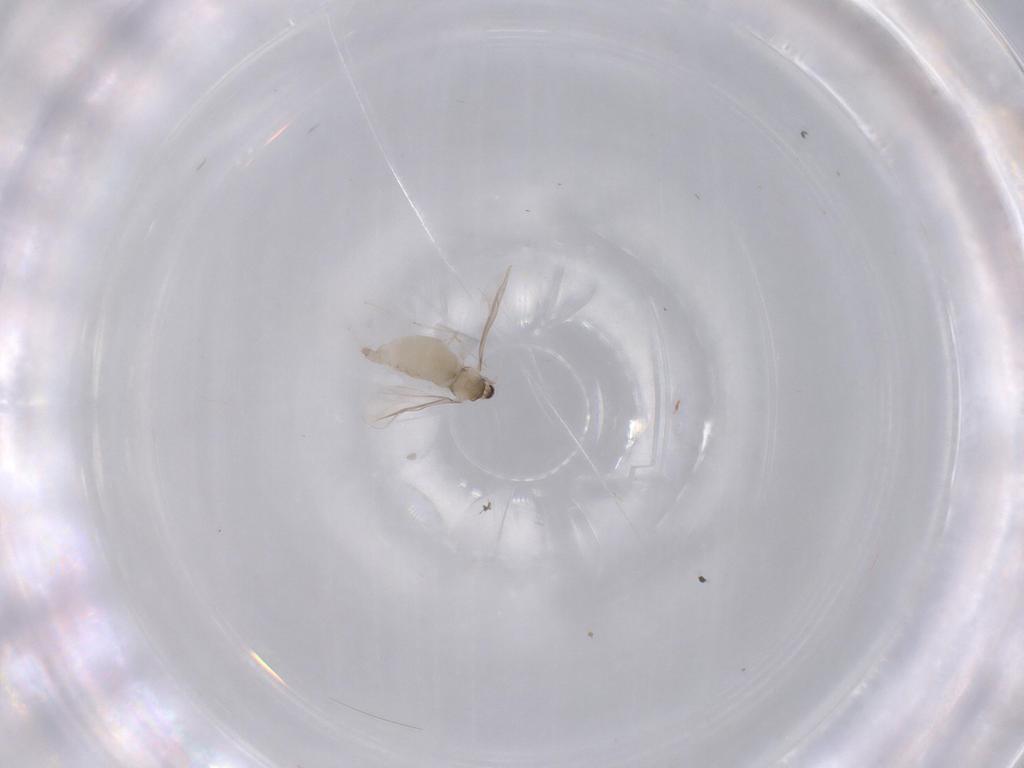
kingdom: Animalia
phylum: Arthropoda
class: Insecta
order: Diptera
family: Cecidomyiidae
